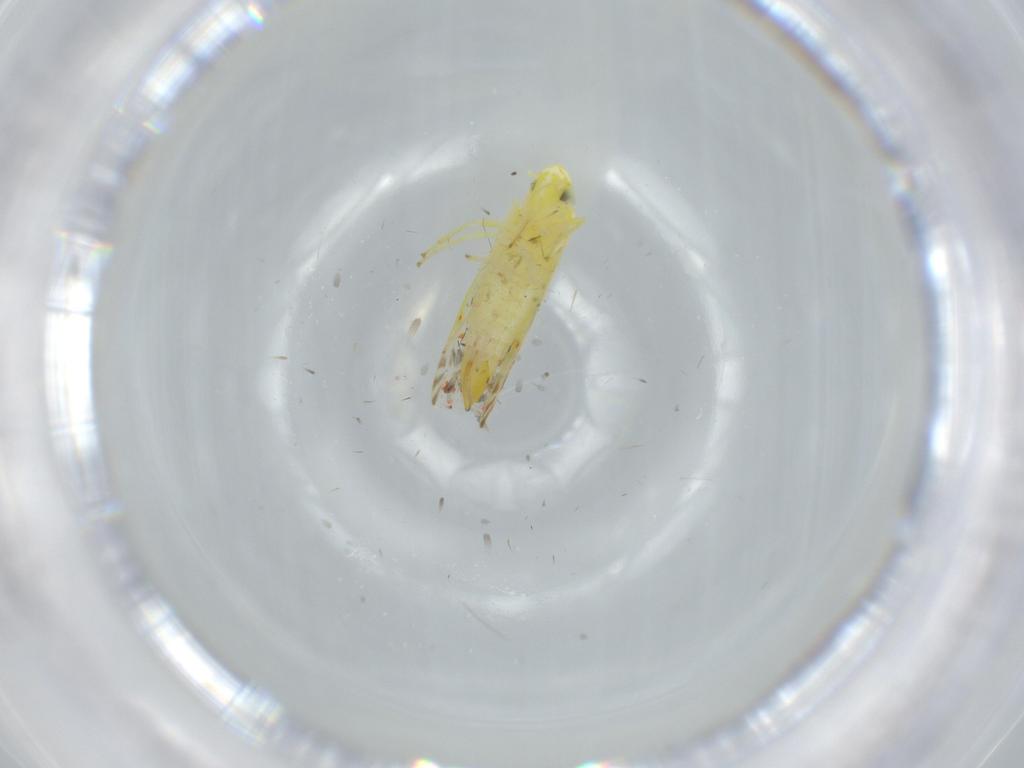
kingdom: Animalia
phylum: Arthropoda
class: Insecta
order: Hemiptera
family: Cicadellidae
